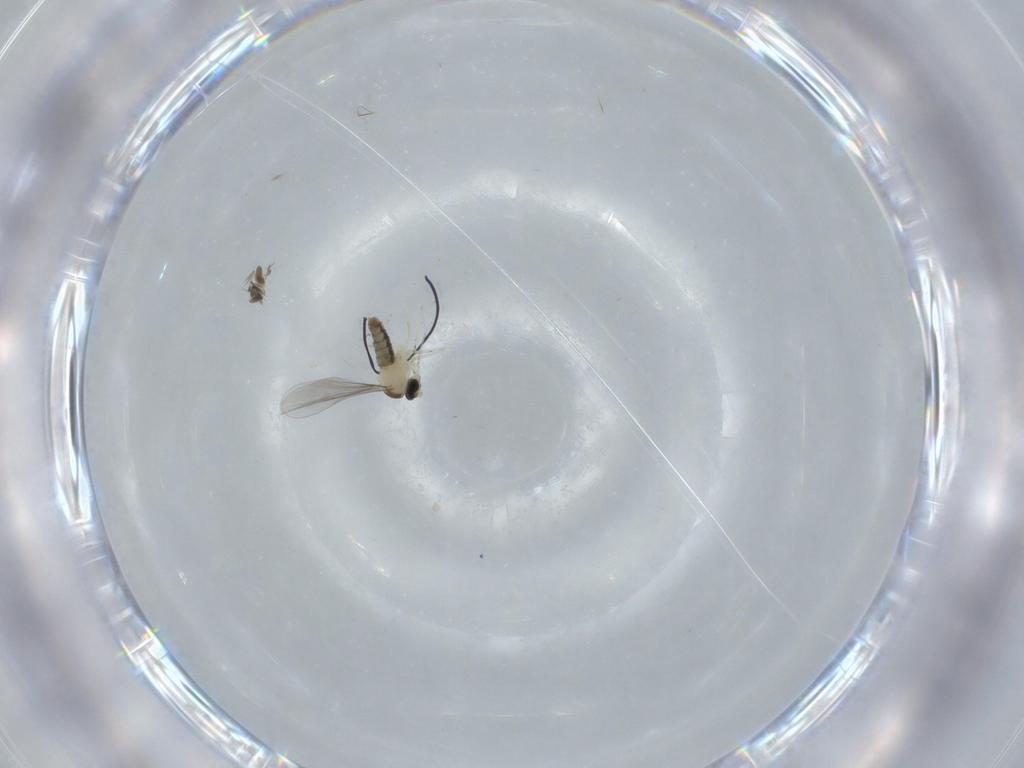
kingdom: Animalia
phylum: Arthropoda
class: Insecta
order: Diptera
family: Cecidomyiidae
